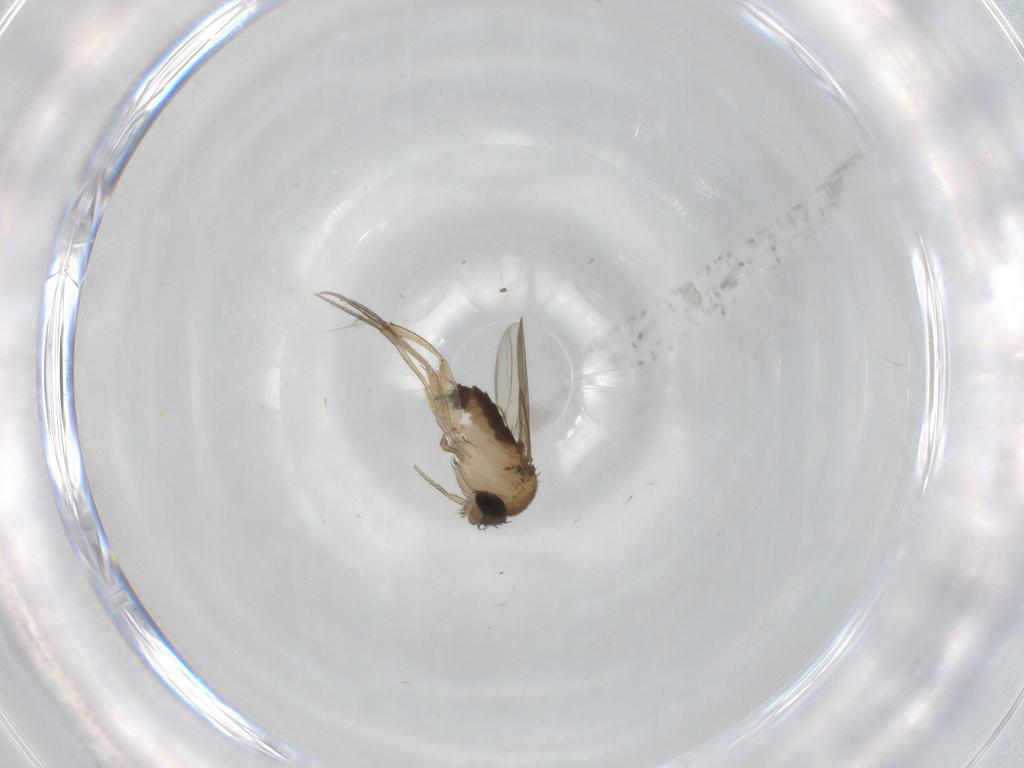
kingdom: Animalia
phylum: Arthropoda
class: Insecta
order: Diptera
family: Phoridae
